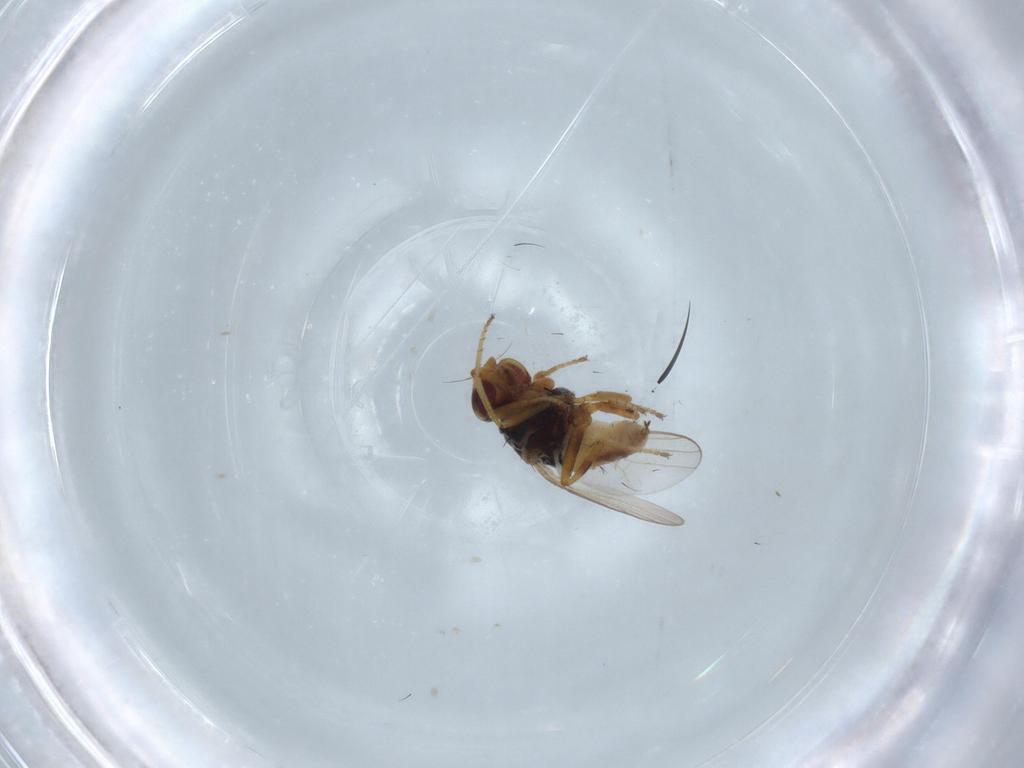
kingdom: Animalia
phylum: Arthropoda
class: Insecta
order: Diptera
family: Chloropidae
